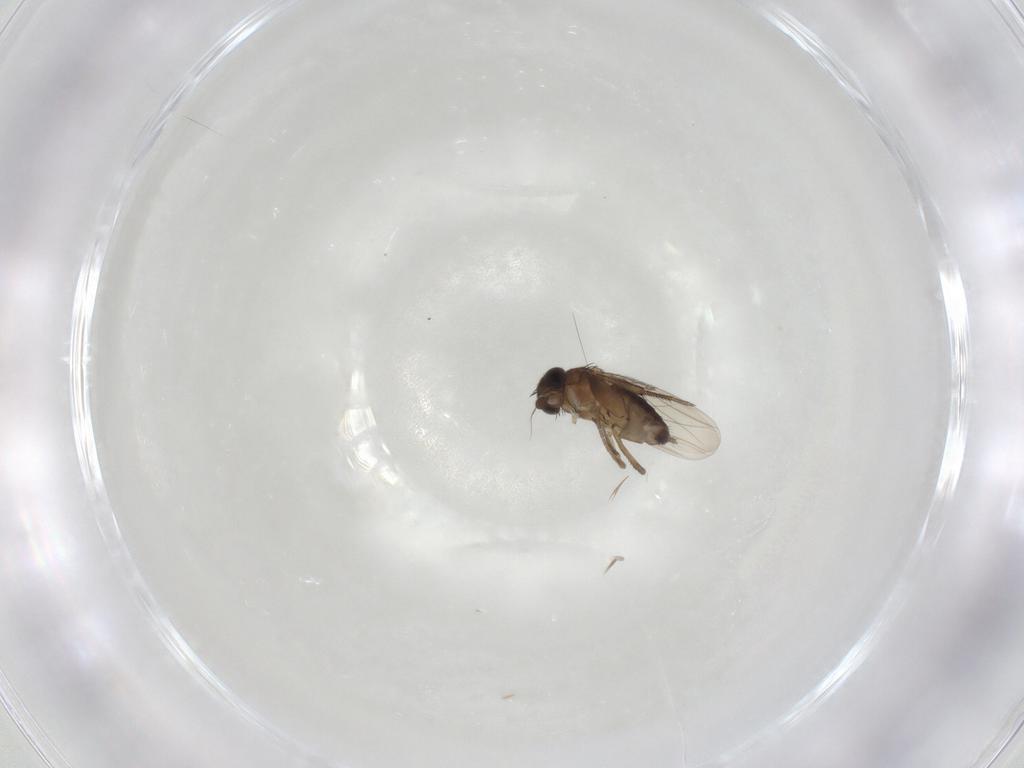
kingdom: Animalia
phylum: Arthropoda
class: Insecta
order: Diptera
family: Phoridae
